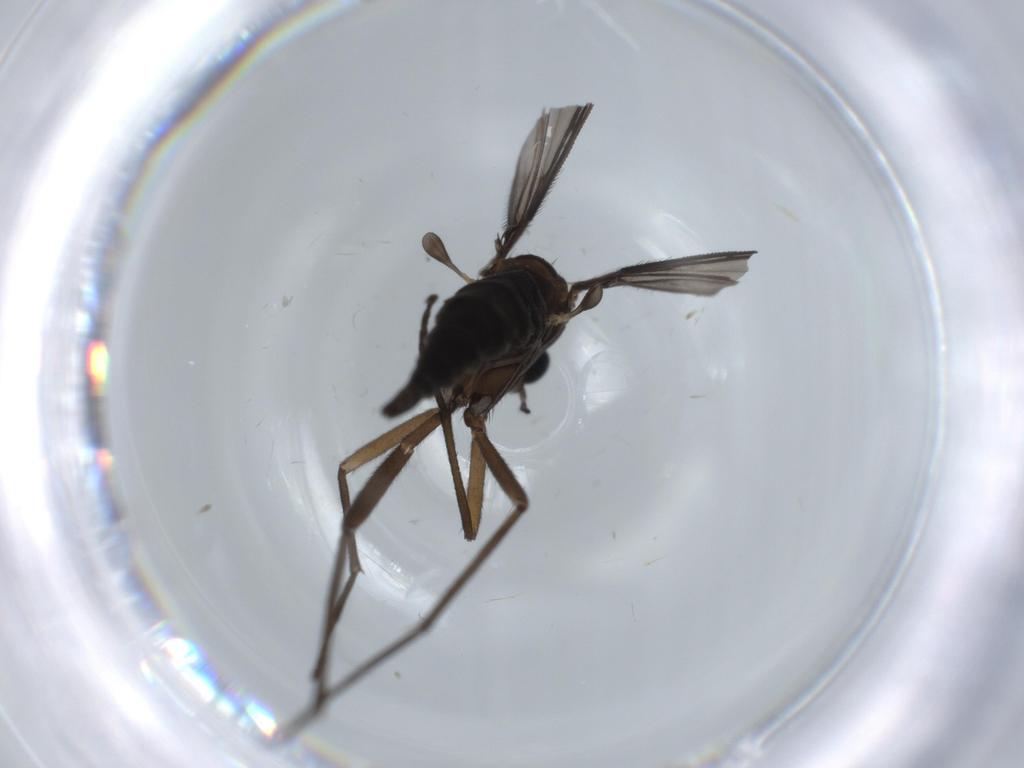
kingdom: Animalia
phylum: Arthropoda
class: Insecta
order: Diptera
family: Sciaridae
